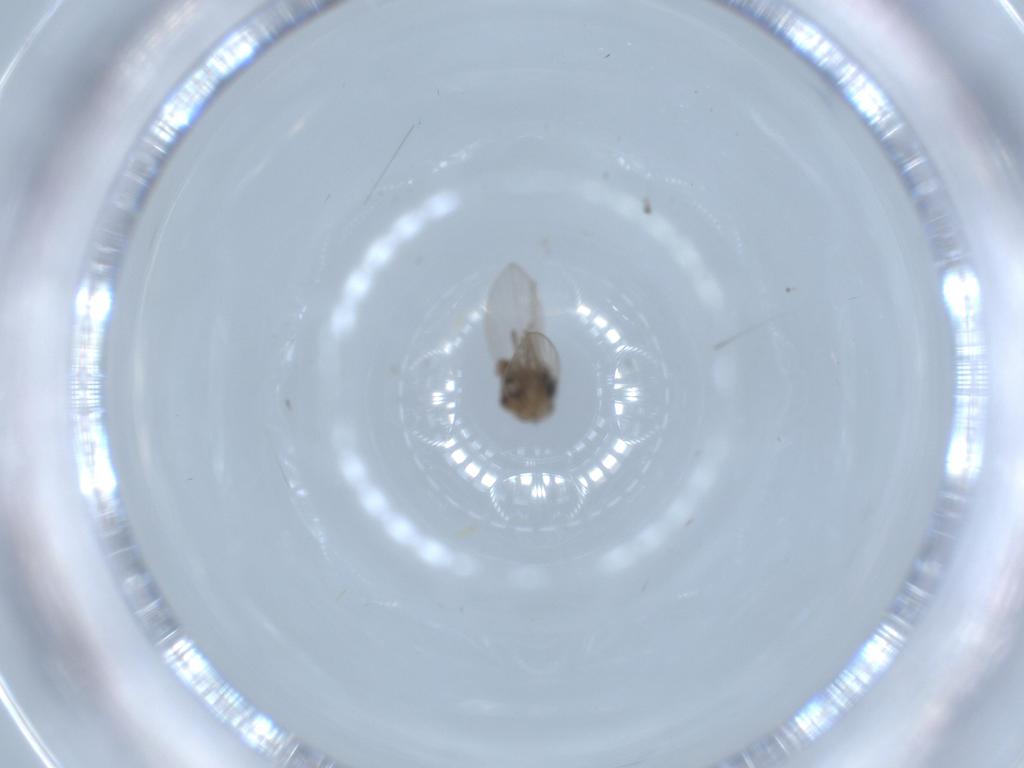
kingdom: Animalia
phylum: Arthropoda
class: Insecta
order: Diptera
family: Psychodidae
